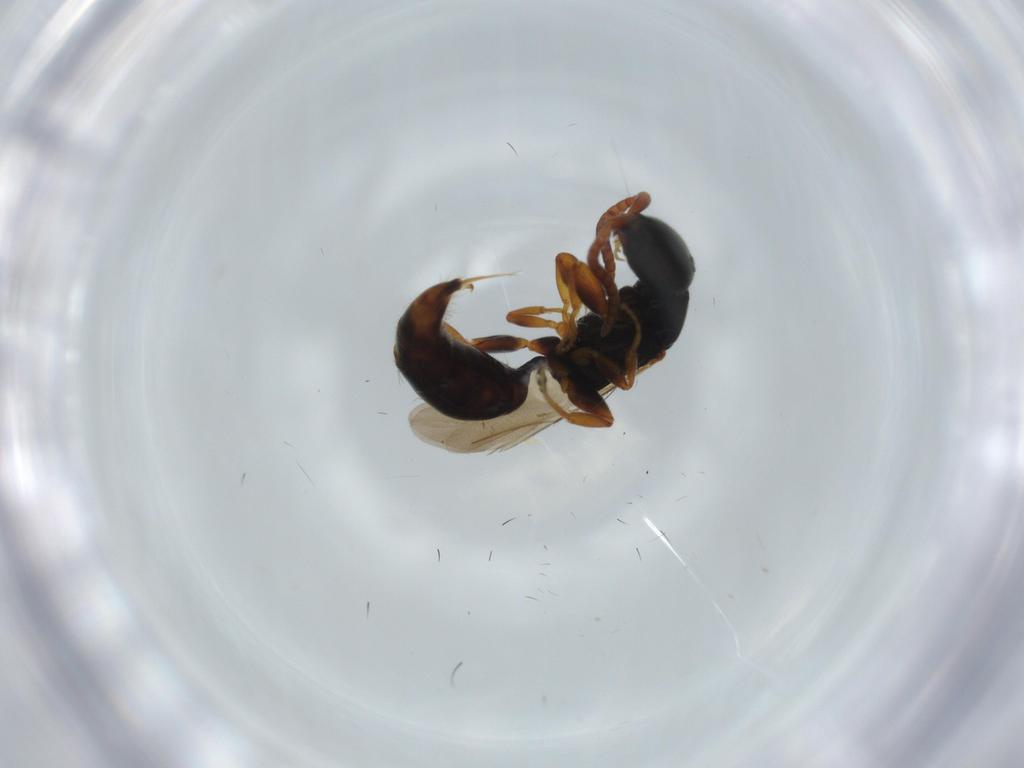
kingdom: Animalia
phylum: Arthropoda
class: Insecta
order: Hymenoptera
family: Bethylidae
